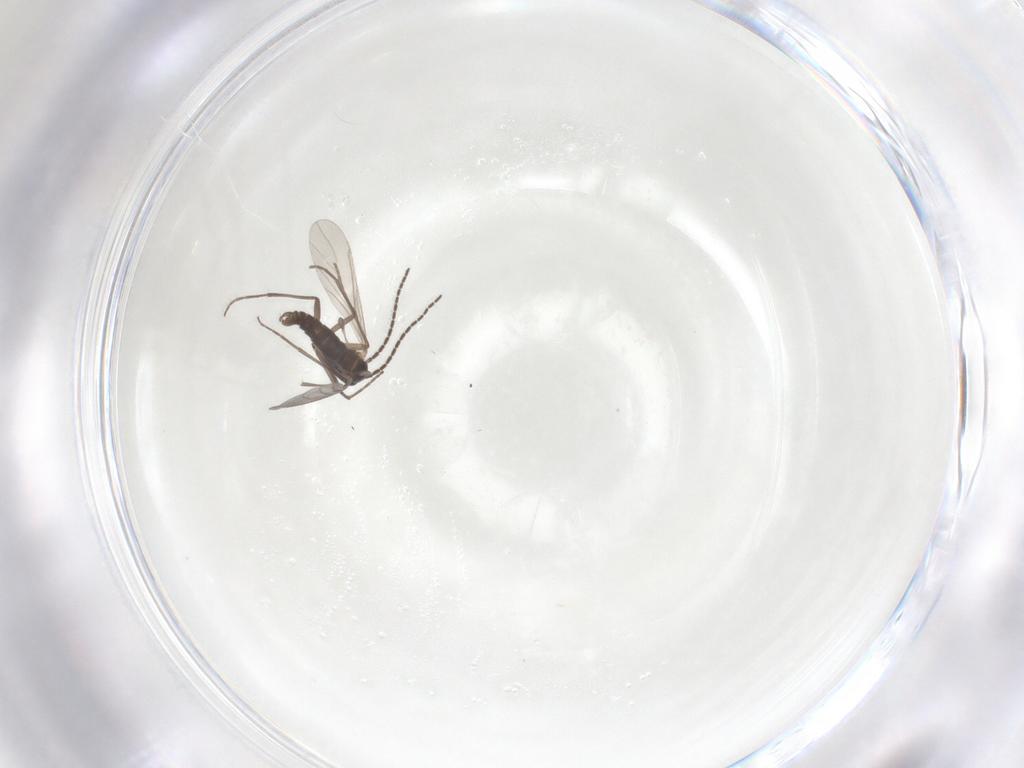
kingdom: Animalia
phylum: Arthropoda
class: Insecta
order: Diptera
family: Sciaridae
